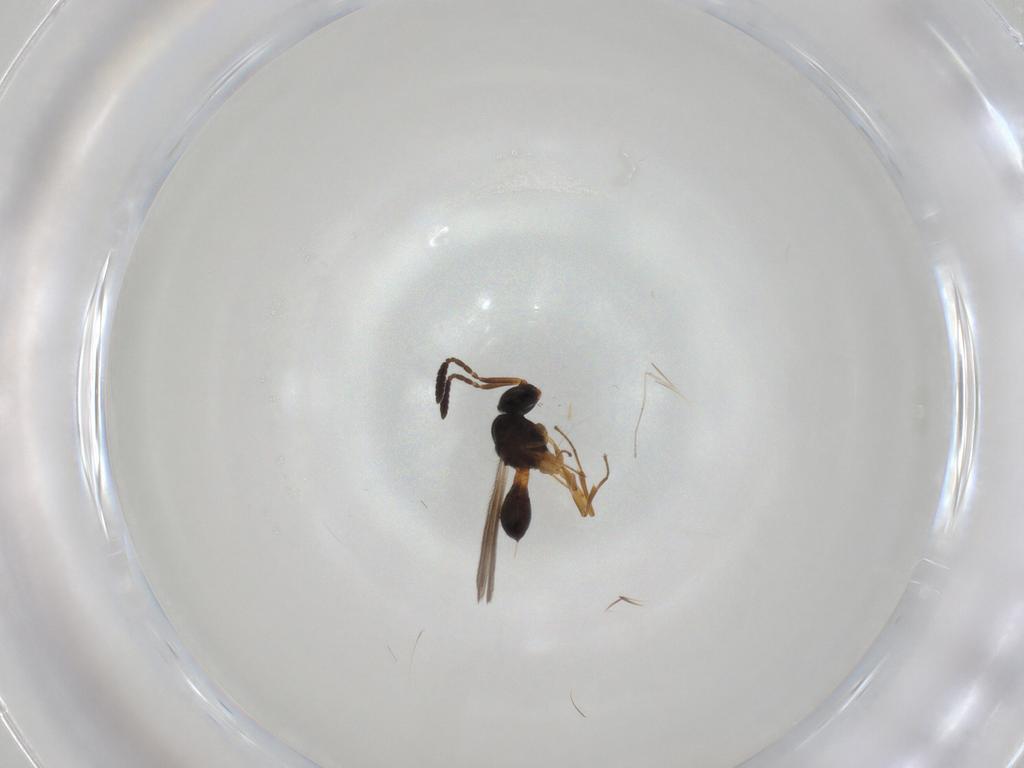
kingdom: Animalia
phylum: Arthropoda
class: Insecta
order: Hymenoptera
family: Scelionidae
